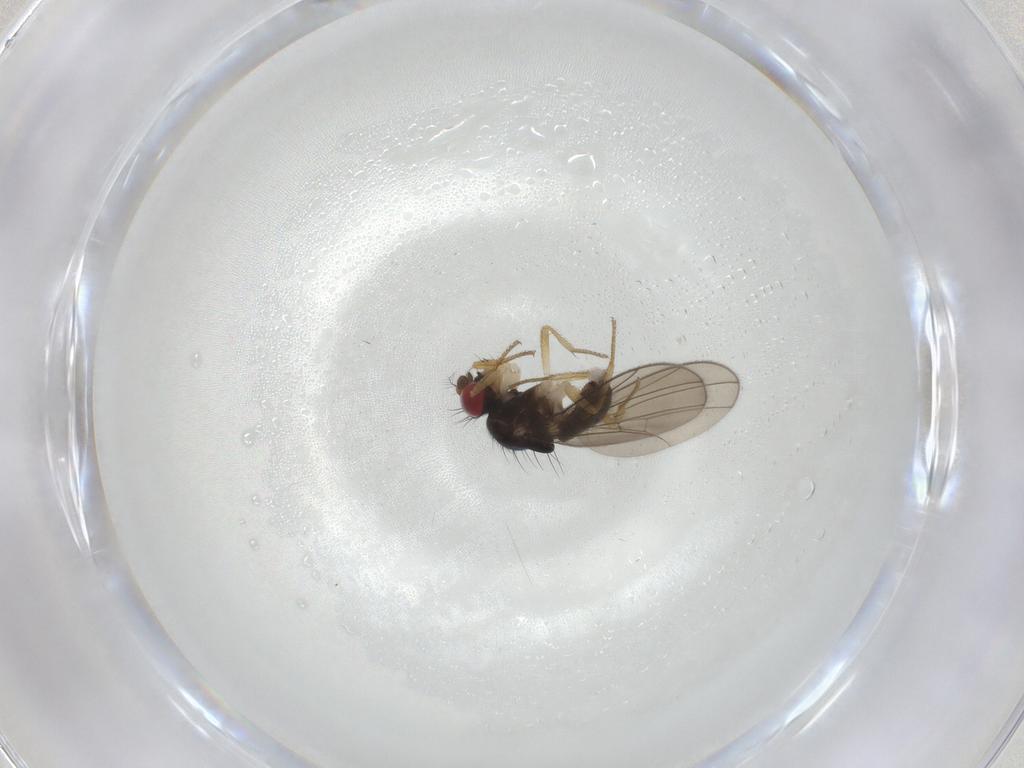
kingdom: Animalia
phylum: Arthropoda
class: Insecta
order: Diptera
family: Drosophilidae
